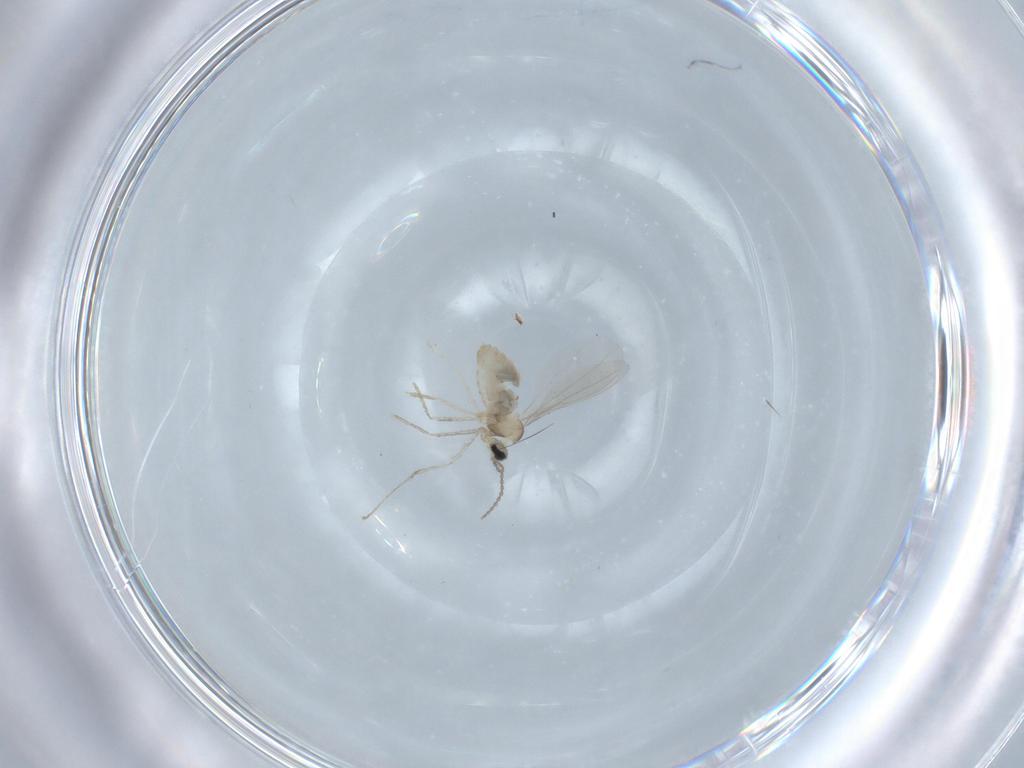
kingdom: Animalia
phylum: Arthropoda
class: Insecta
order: Diptera
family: Cecidomyiidae
